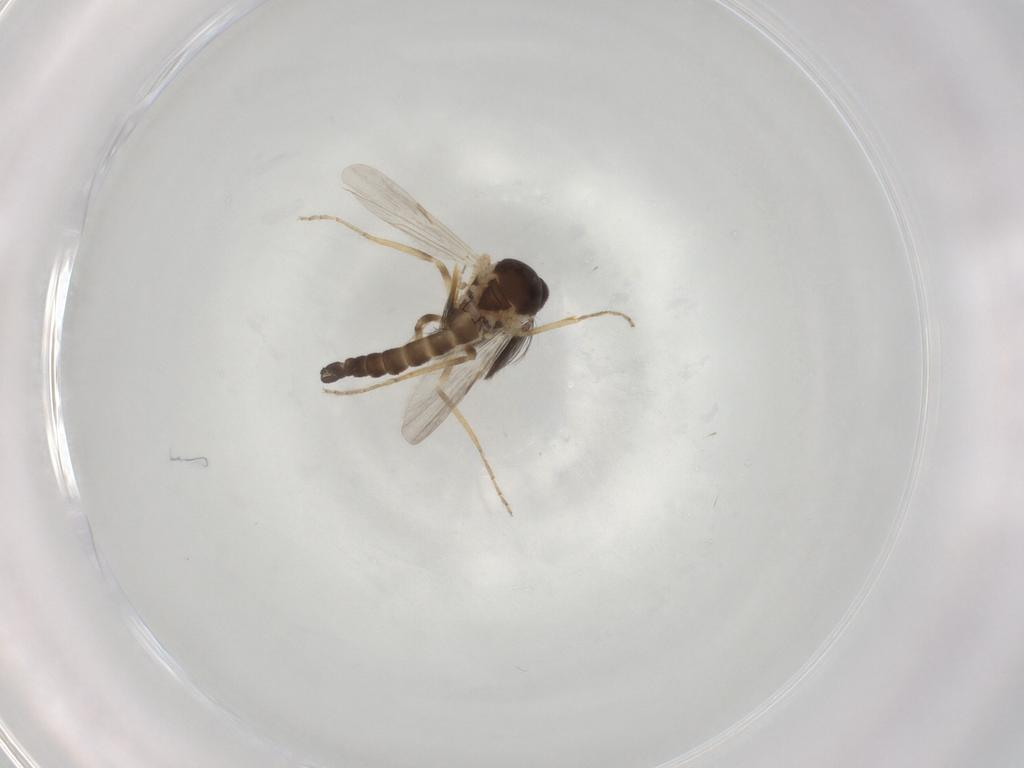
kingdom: Animalia
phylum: Arthropoda
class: Insecta
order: Diptera
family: Ceratopogonidae
